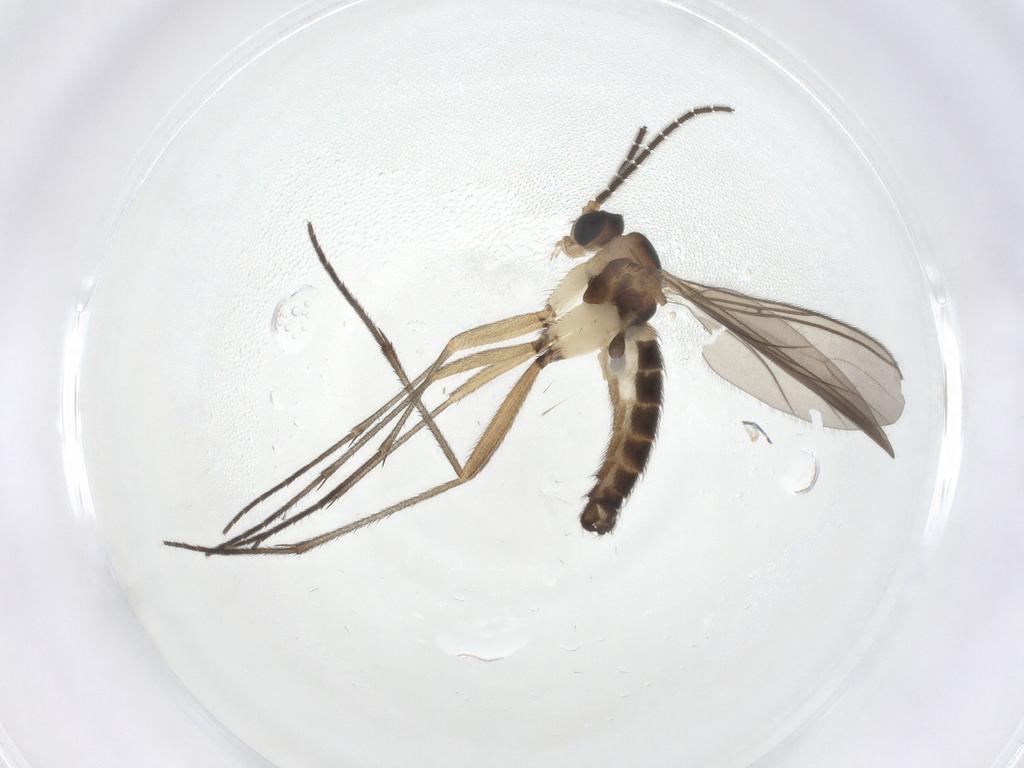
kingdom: Animalia
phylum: Arthropoda
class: Insecta
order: Diptera
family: Sciaridae
